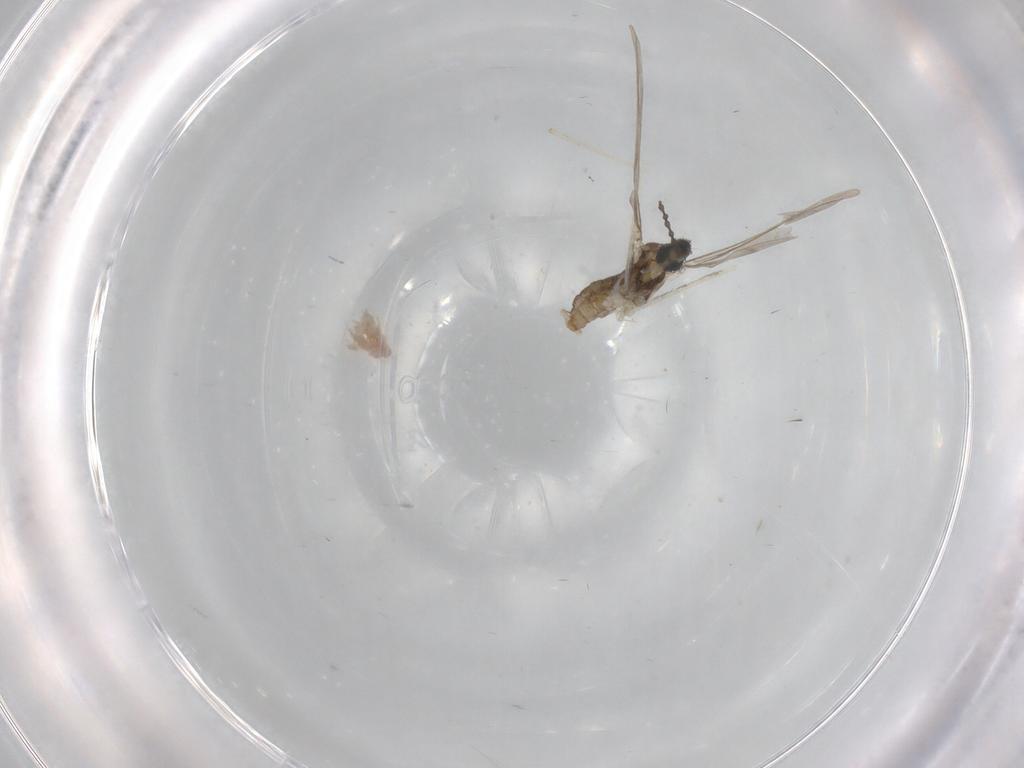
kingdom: Animalia
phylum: Arthropoda
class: Insecta
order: Diptera
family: Cecidomyiidae
